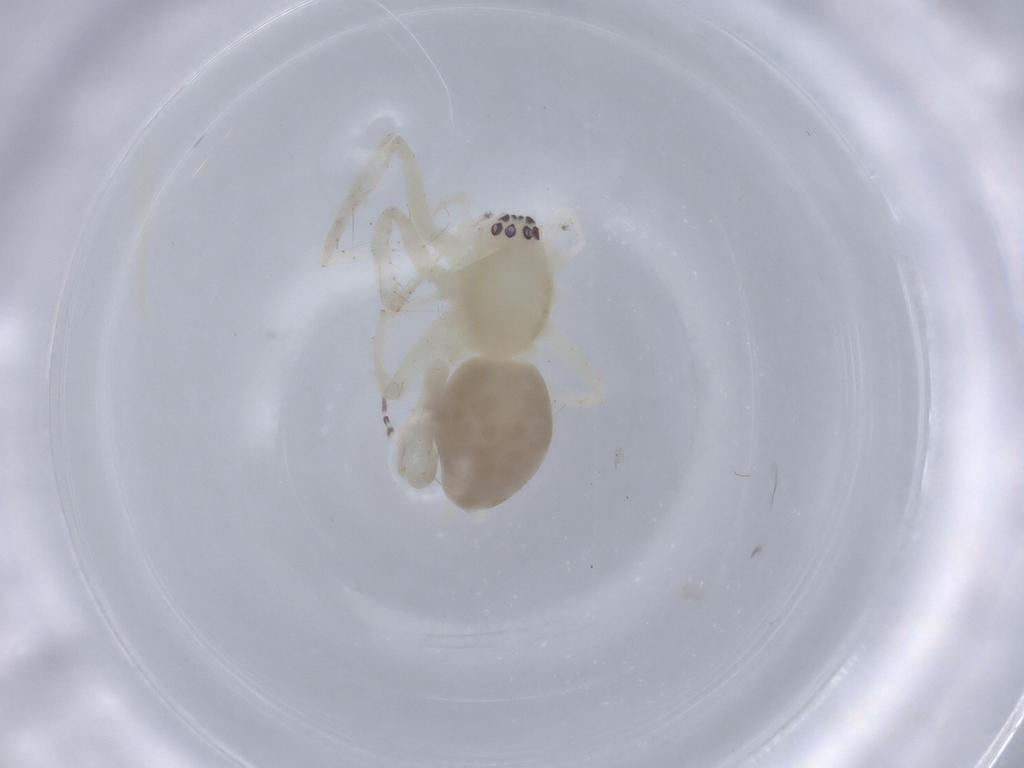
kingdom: Animalia
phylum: Arthropoda
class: Arachnida
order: Araneae
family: Anyphaenidae
